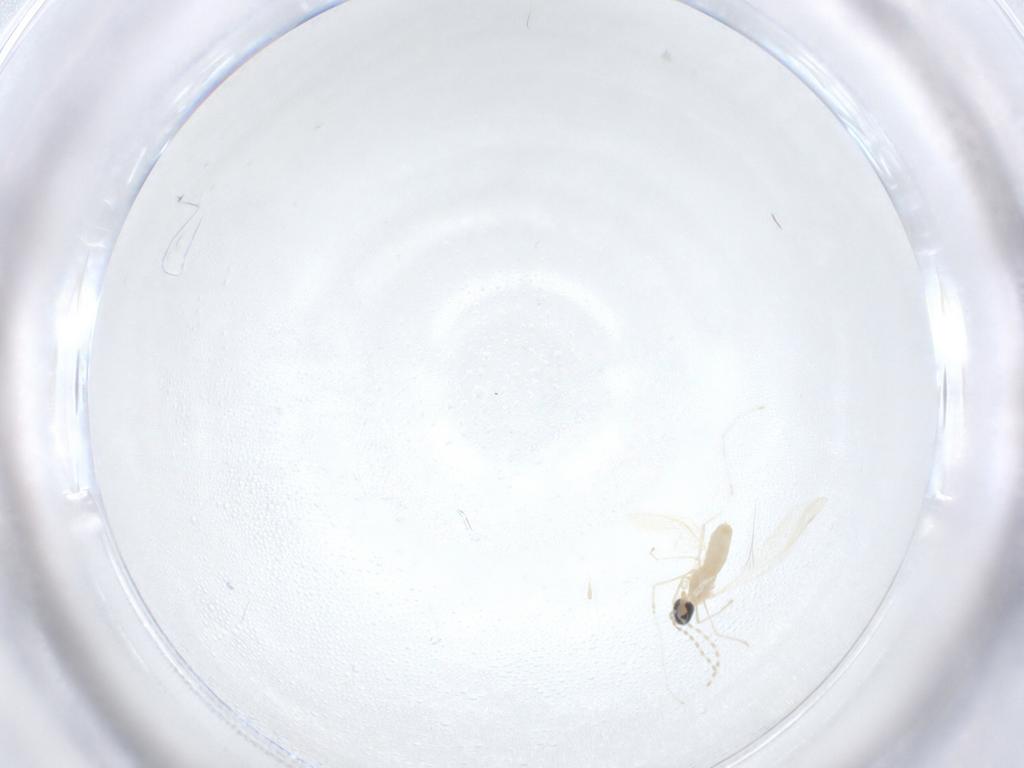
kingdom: Animalia
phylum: Arthropoda
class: Insecta
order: Diptera
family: Cecidomyiidae
